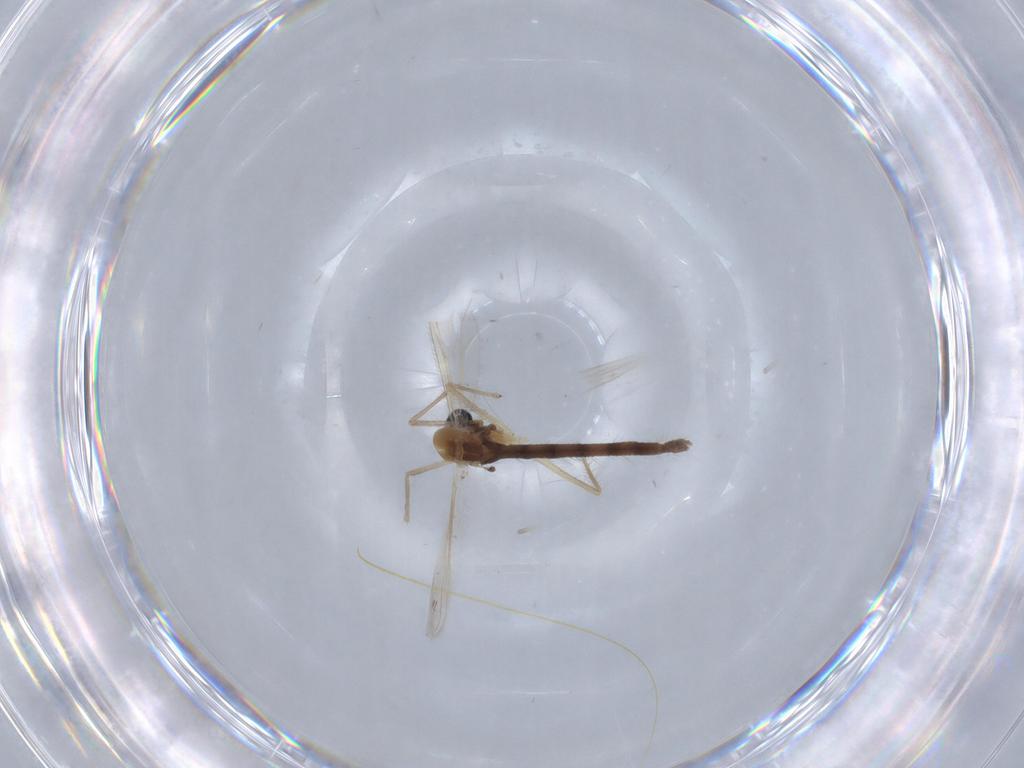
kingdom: Animalia
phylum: Arthropoda
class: Insecta
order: Diptera
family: Chironomidae
